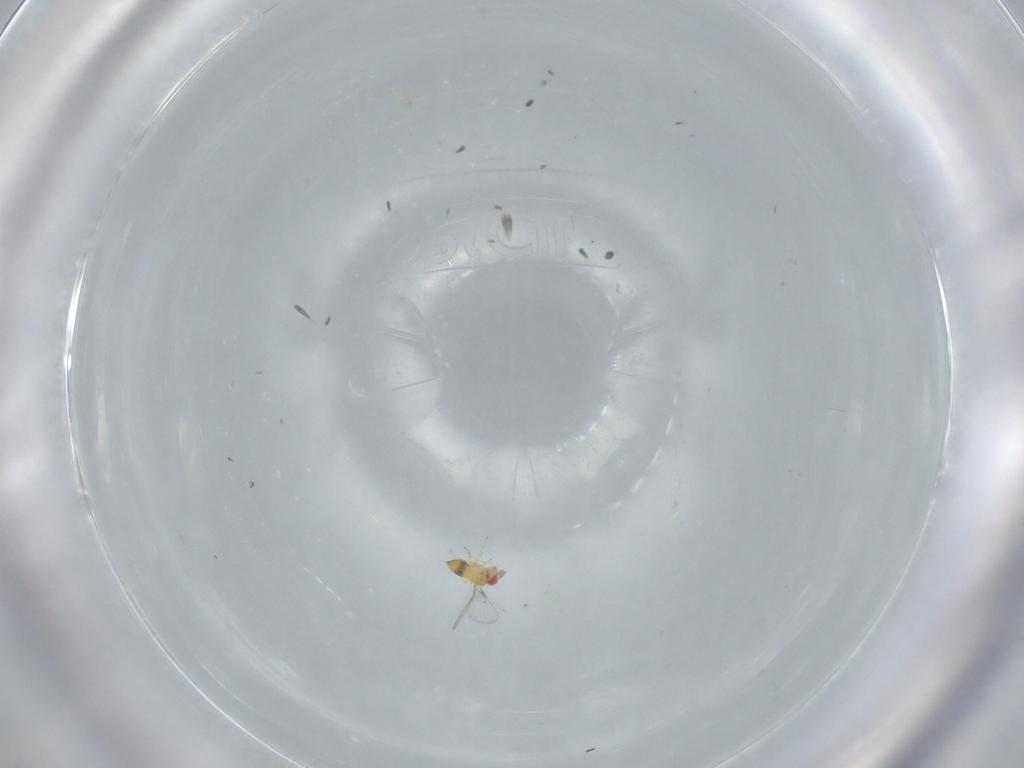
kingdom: Animalia
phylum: Arthropoda
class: Insecta
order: Hymenoptera
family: Scelionidae
